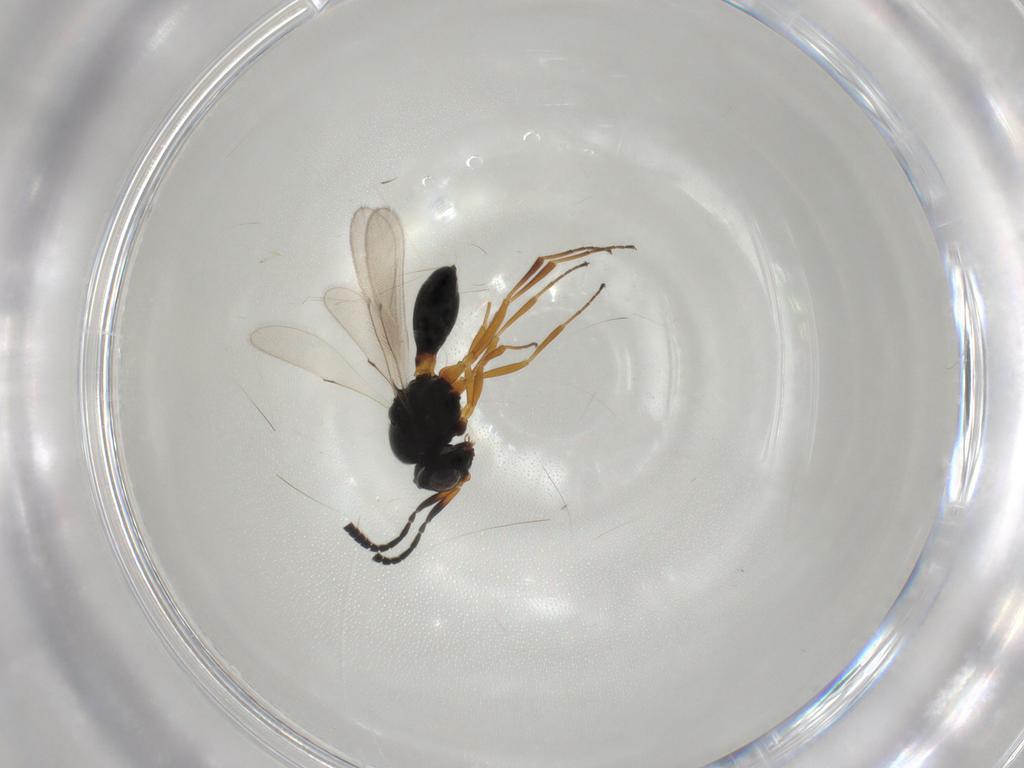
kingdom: Animalia
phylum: Arthropoda
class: Insecta
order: Hymenoptera
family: Scelionidae
